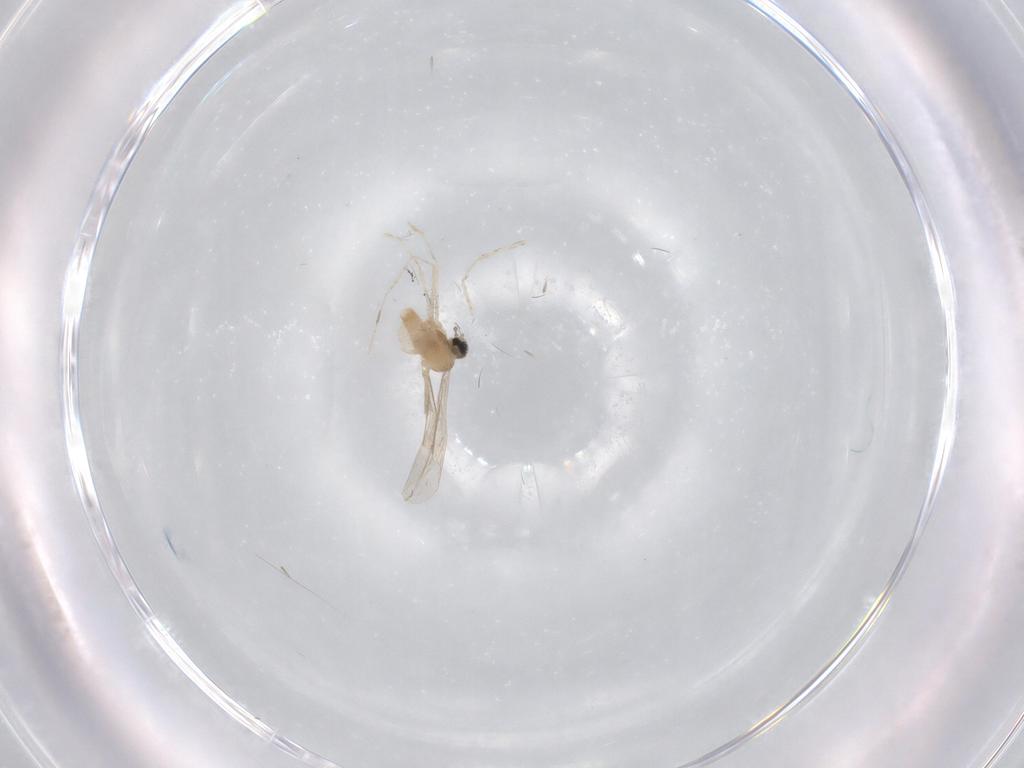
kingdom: Animalia
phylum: Arthropoda
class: Insecta
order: Diptera
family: Cecidomyiidae
